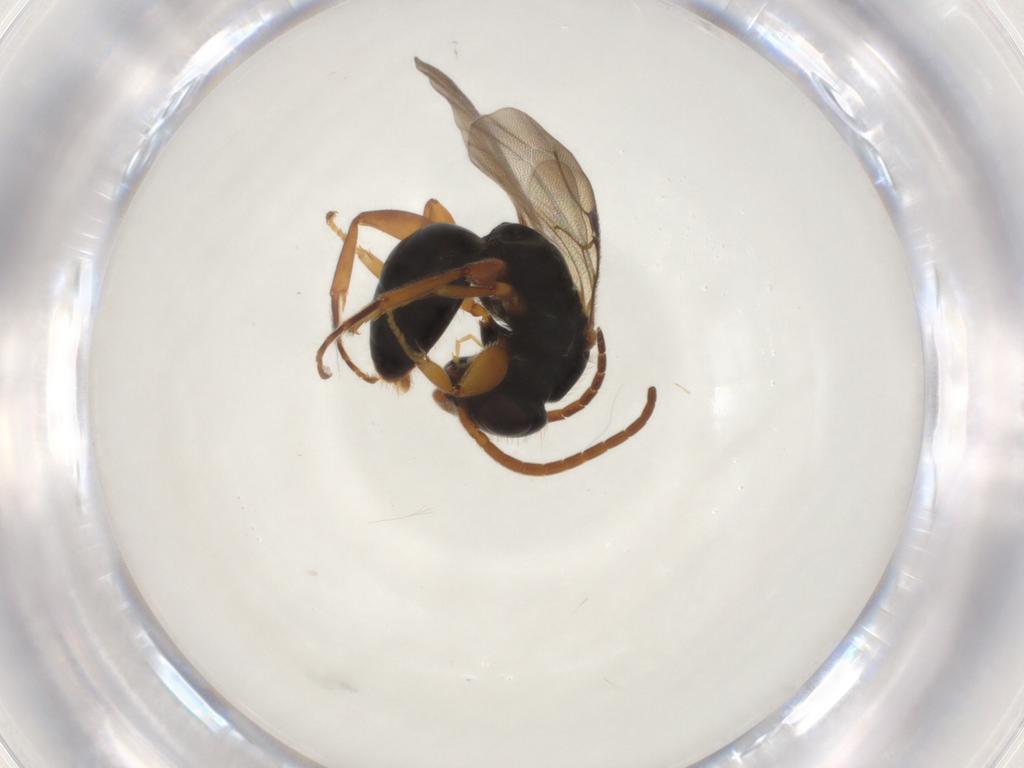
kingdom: Animalia
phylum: Arthropoda
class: Insecta
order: Hymenoptera
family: Bethylidae
